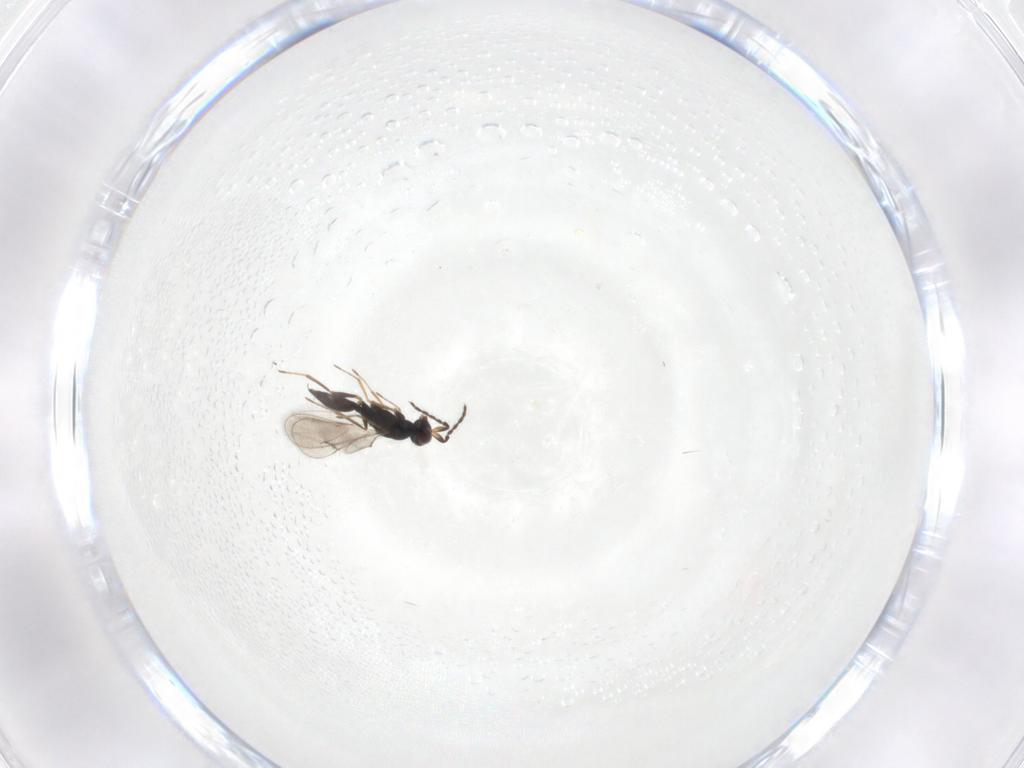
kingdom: Animalia
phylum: Arthropoda
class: Insecta
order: Hymenoptera
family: Eulophidae
